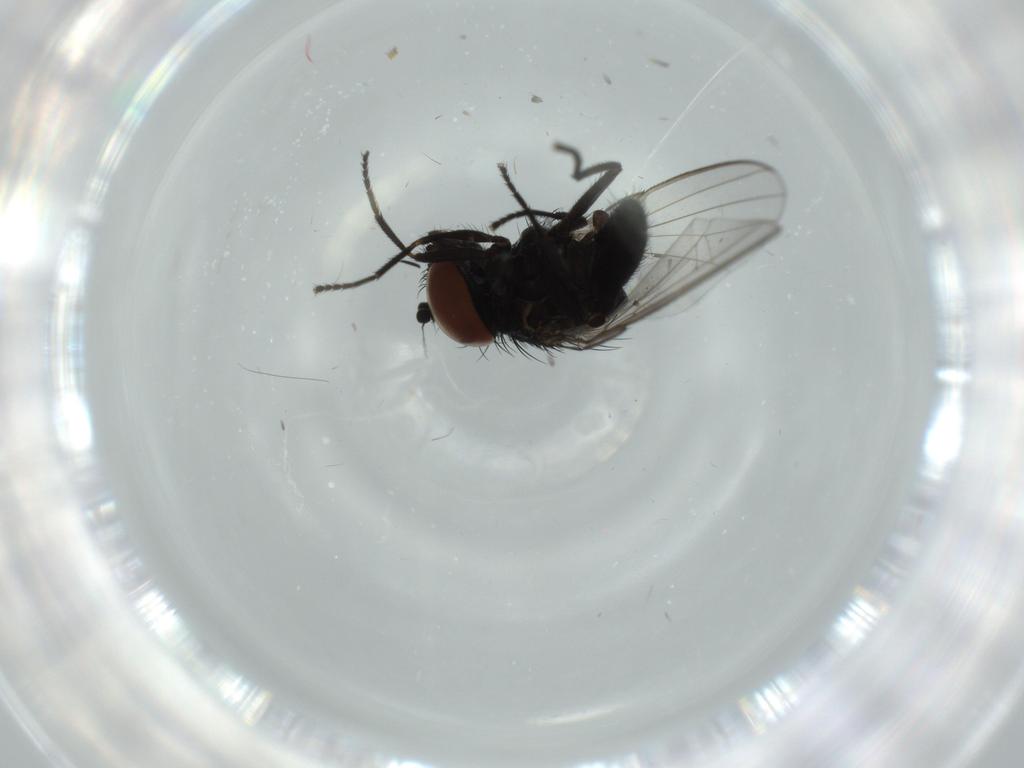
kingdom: Animalia
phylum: Arthropoda
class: Insecta
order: Diptera
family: Milichiidae
